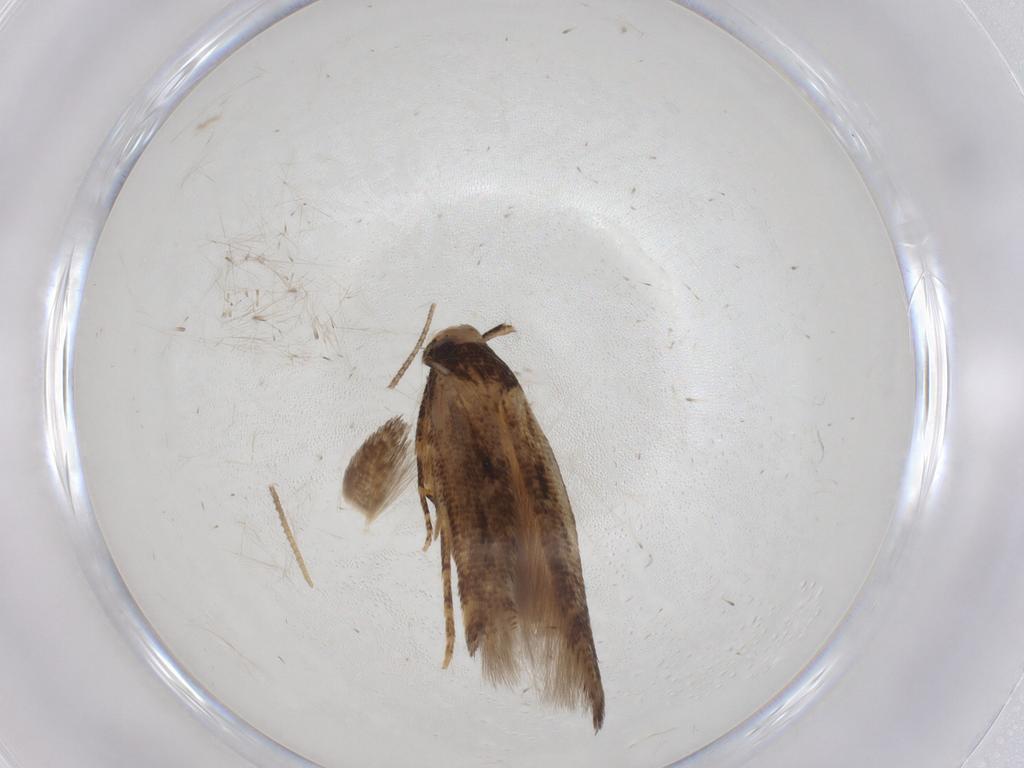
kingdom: Animalia
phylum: Arthropoda
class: Insecta
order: Lepidoptera
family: Cosmopterigidae
